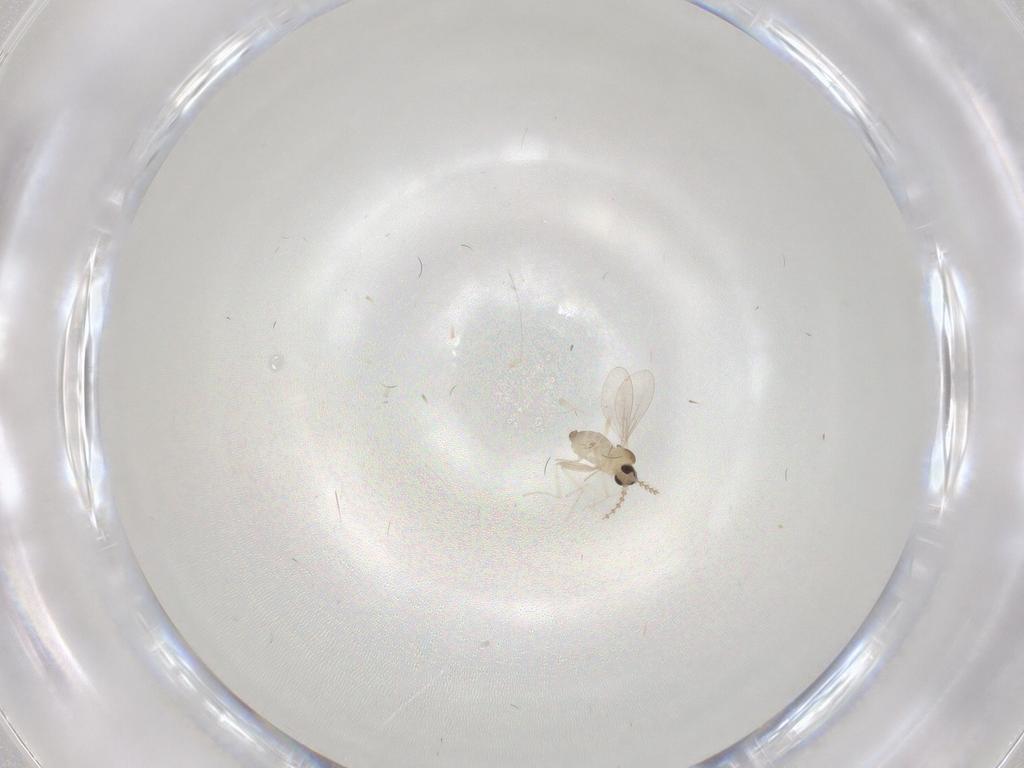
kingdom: Animalia
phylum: Arthropoda
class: Insecta
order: Diptera
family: Cecidomyiidae
